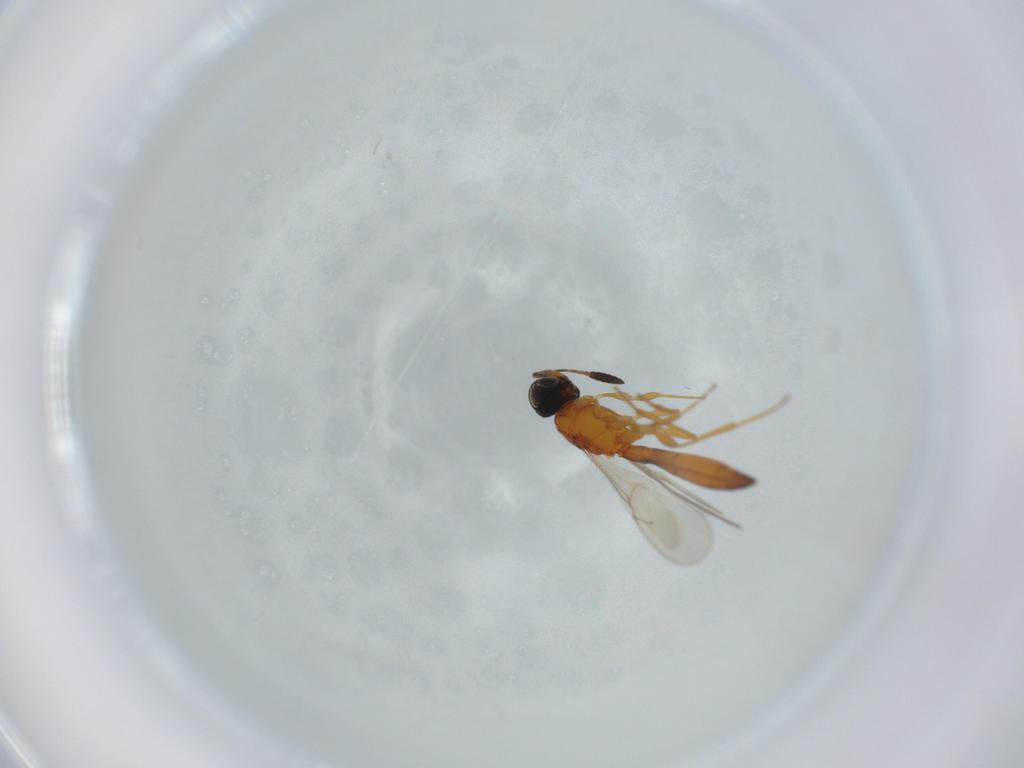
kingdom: Animalia
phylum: Arthropoda
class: Insecta
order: Hymenoptera
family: Scelionidae
